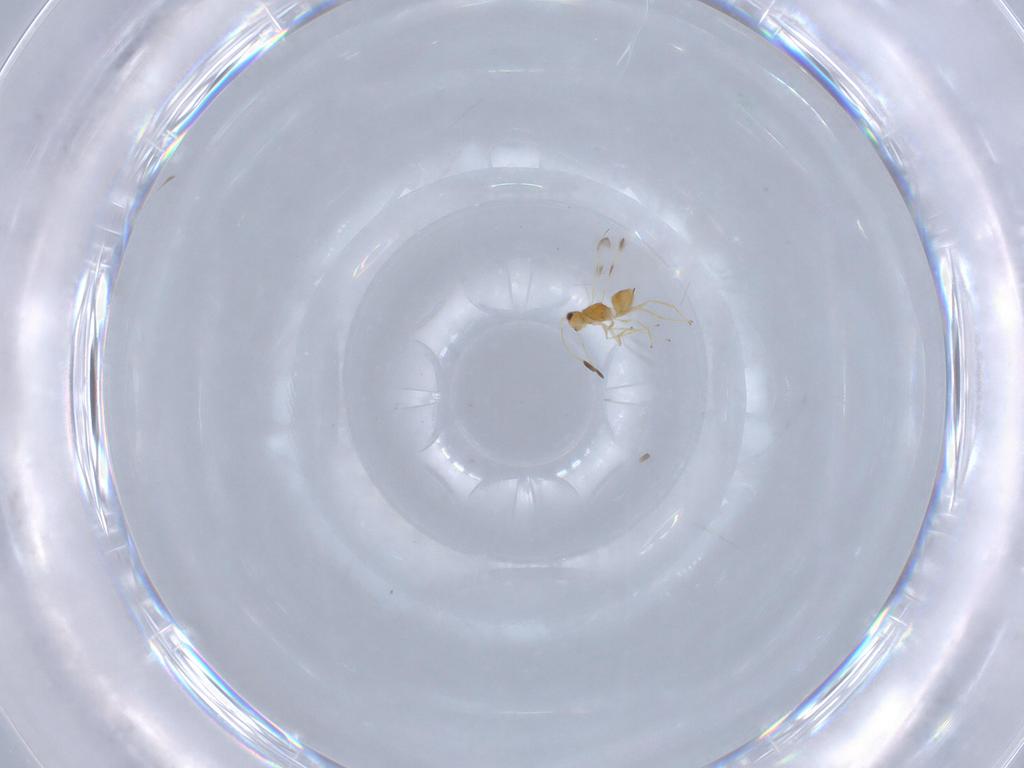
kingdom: Animalia
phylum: Arthropoda
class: Insecta
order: Hymenoptera
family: Mymaridae
